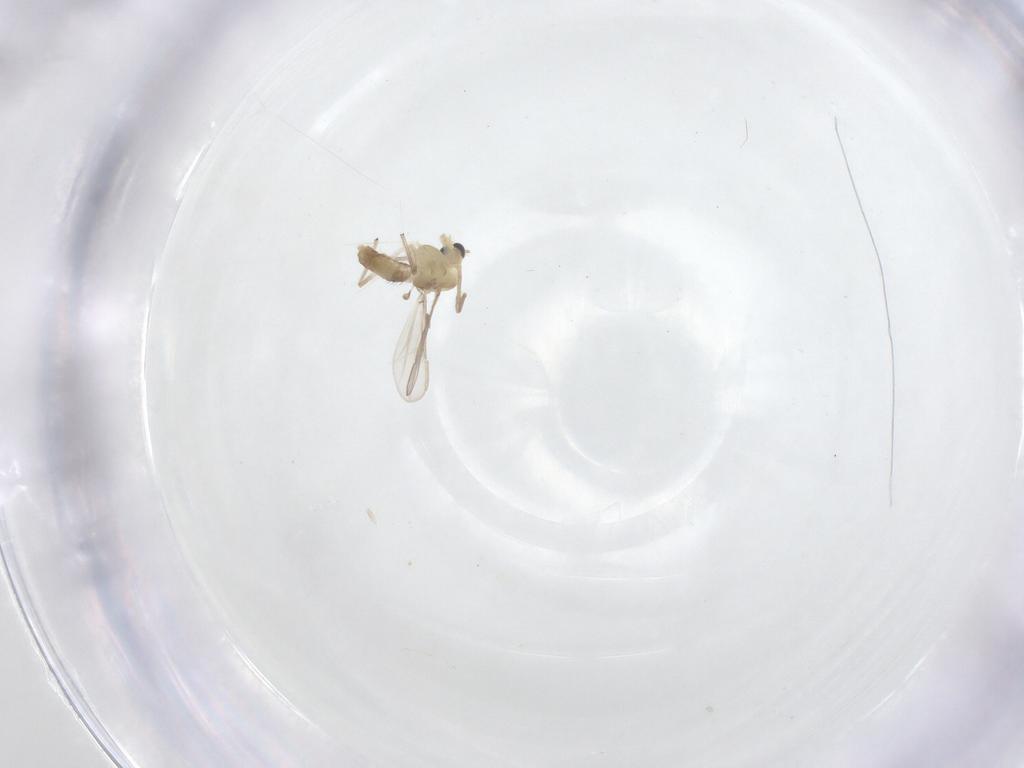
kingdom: Animalia
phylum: Arthropoda
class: Insecta
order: Diptera
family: Chironomidae
